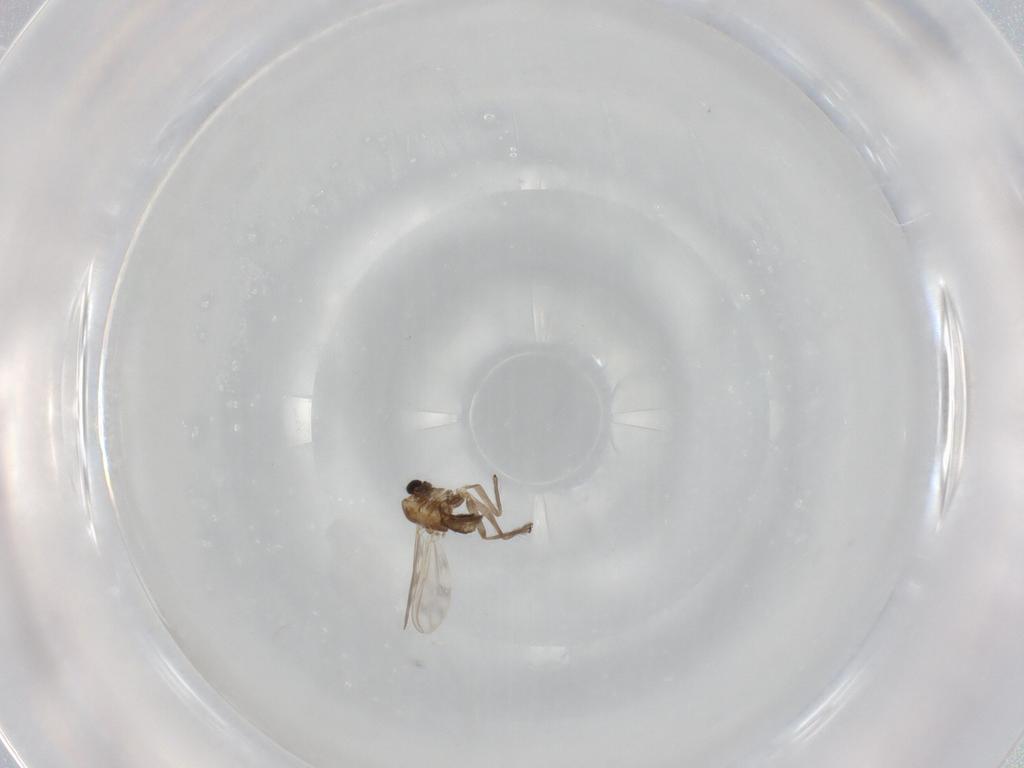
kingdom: Animalia
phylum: Arthropoda
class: Insecta
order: Diptera
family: Chironomidae
